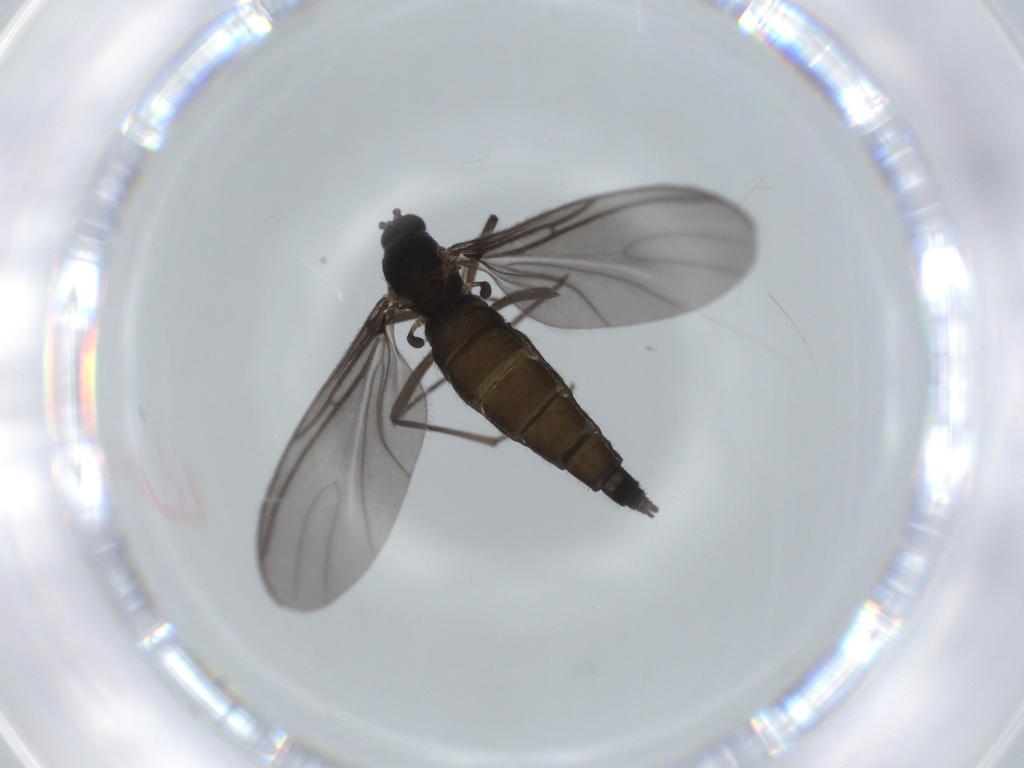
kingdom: Animalia
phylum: Arthropoda
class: Insecta
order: Diptera
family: Sciaridae
